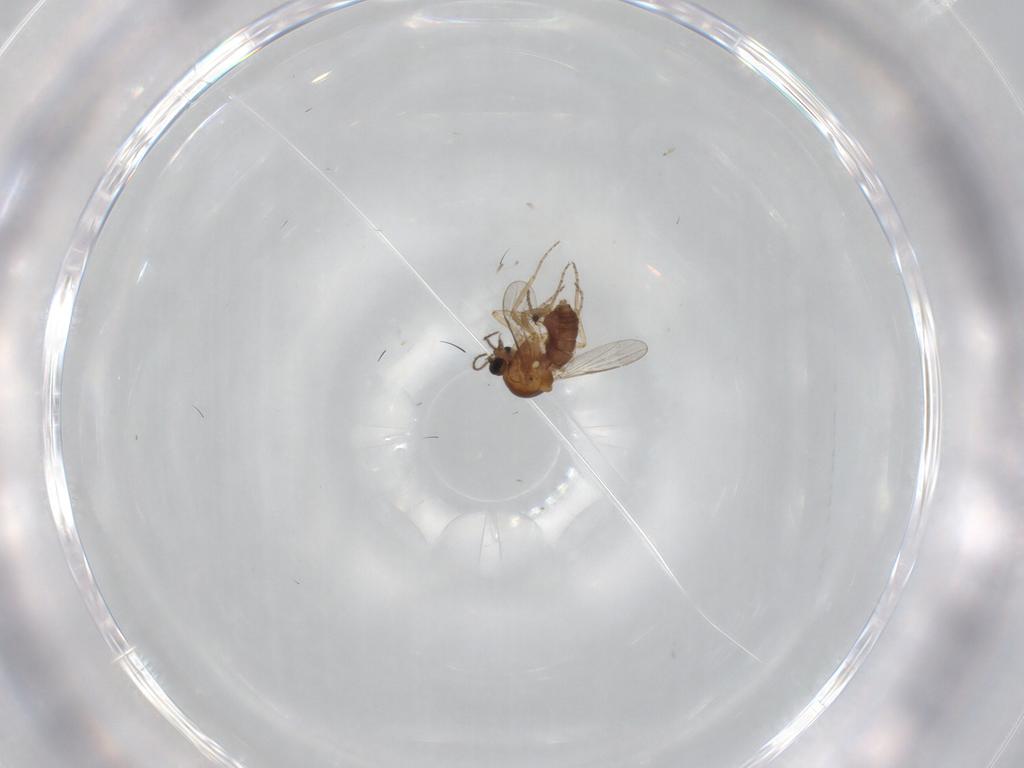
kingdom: Animalia
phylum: Arthropoda
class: Insecta
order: Diptera
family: Ceratopogonidae
